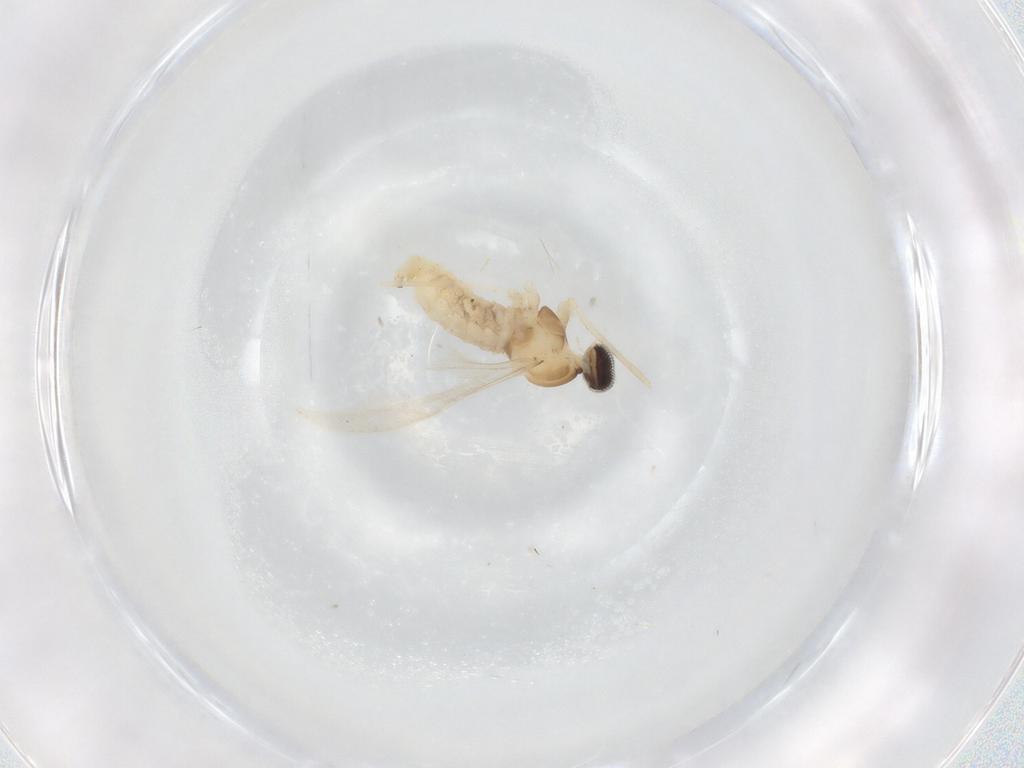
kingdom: Animalia
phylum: Arthropoda
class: Insecta
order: Diptera
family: Cecidomyiidae
